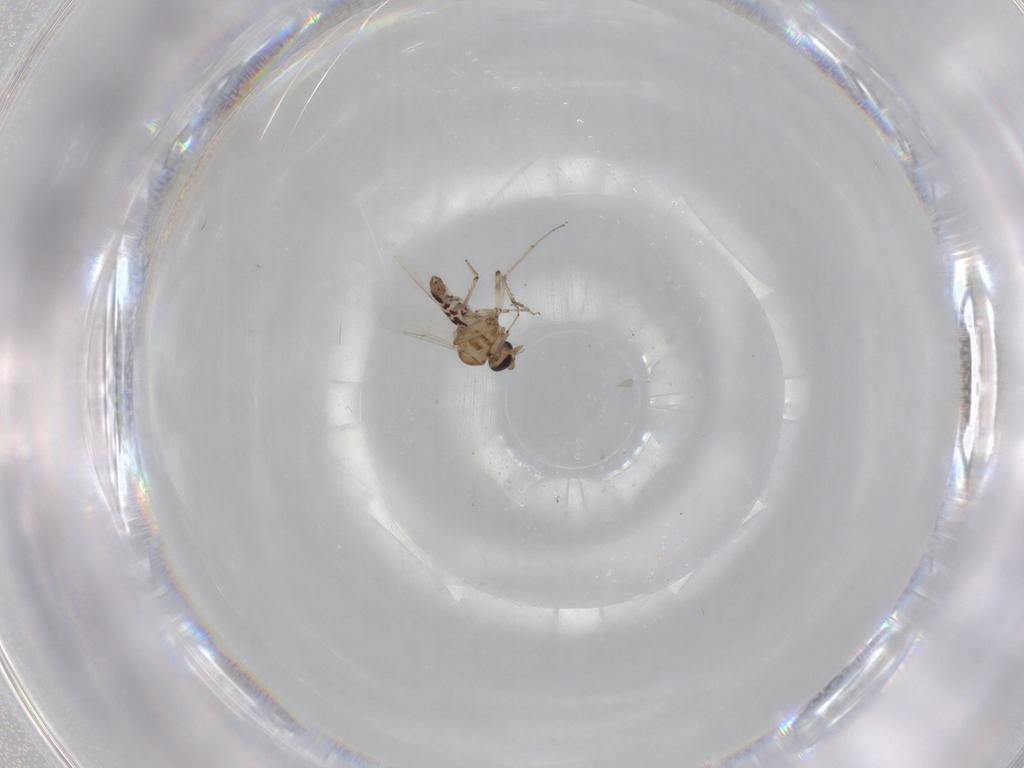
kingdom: Animalia
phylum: Arthropoda
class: Insecta
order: Diptera
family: Ceratopogonidae
